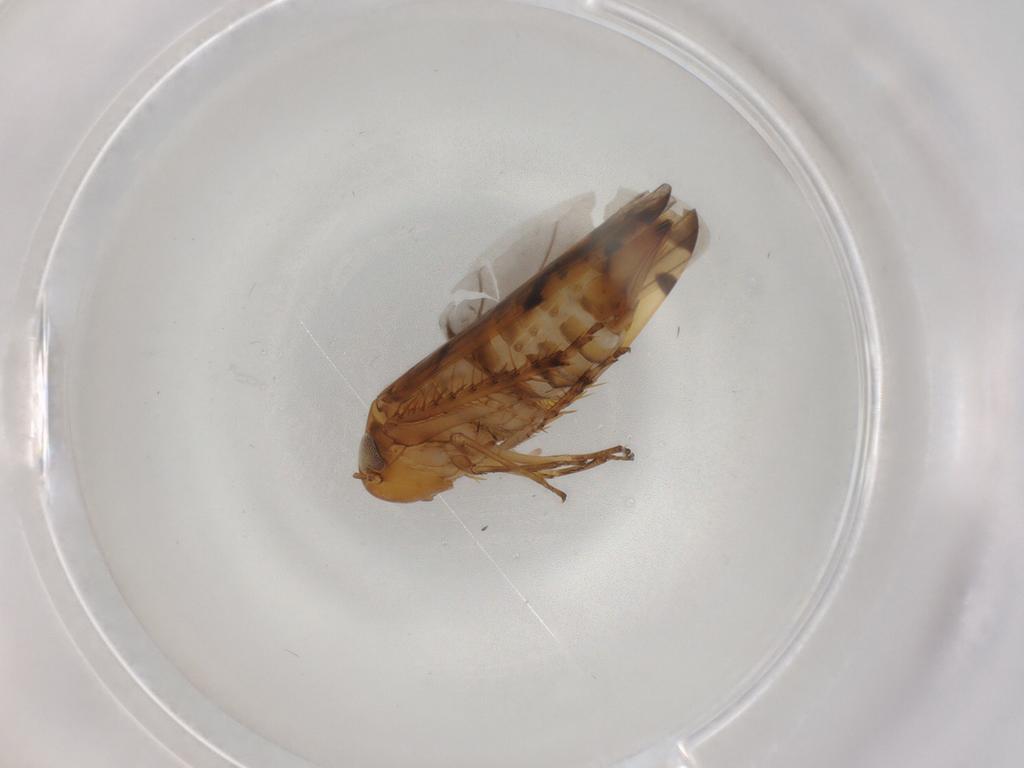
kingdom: Animalia
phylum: Arthropoda
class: Insecta
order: Hemiptera
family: Cicadellidae
